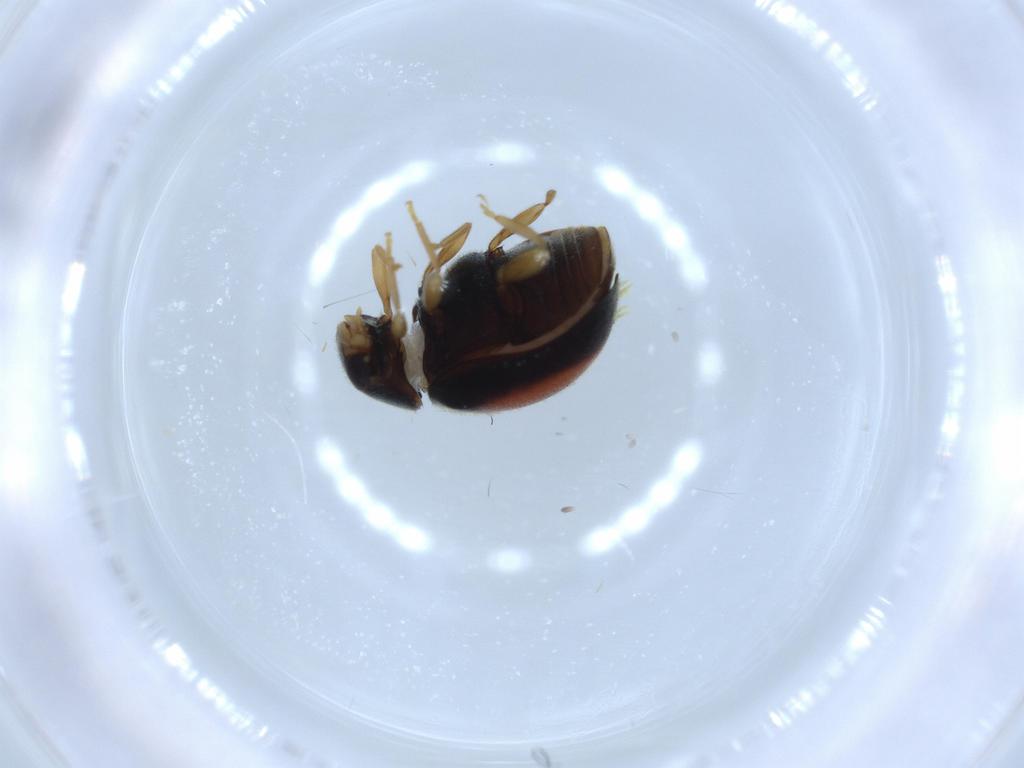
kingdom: Animalia
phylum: Arthropoda
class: Insecta
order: Coleoptera
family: Coccinellidae
